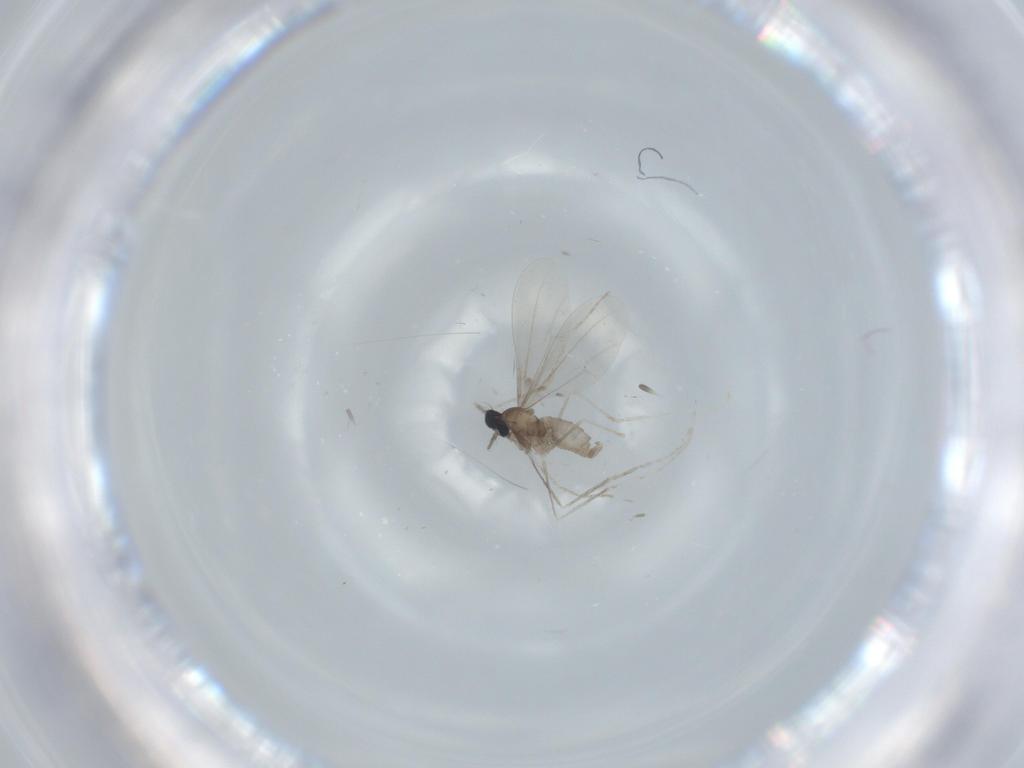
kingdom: Animalia
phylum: Arthropoda
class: Insecta
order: Diptera
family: Cecidomyiidae
